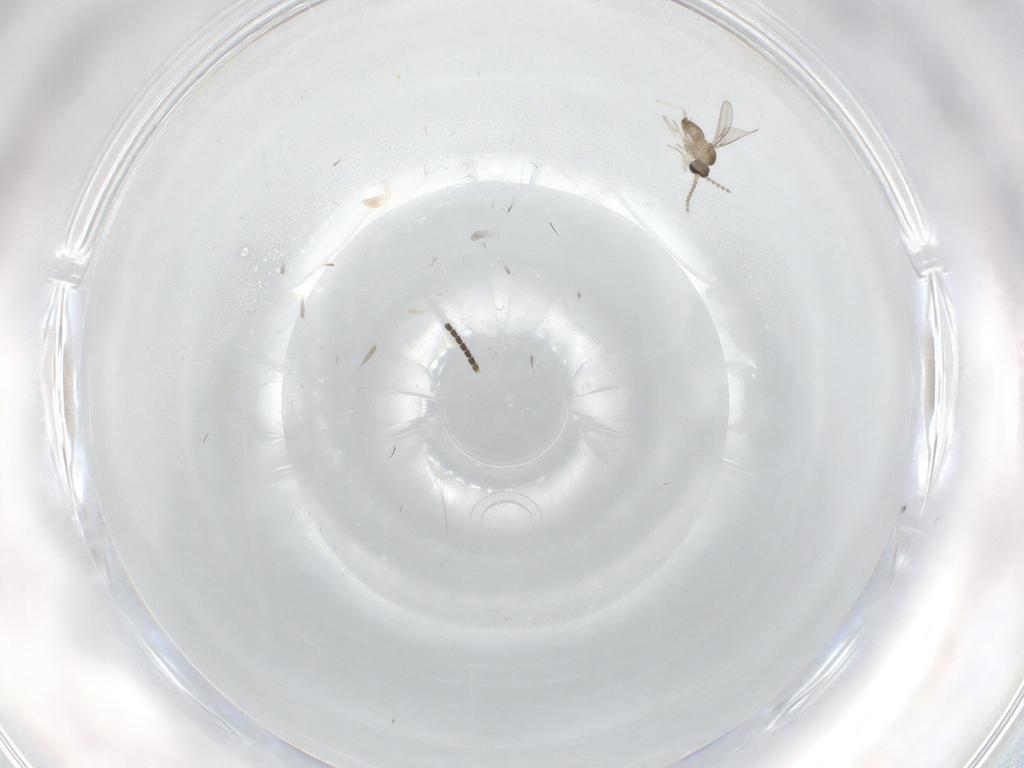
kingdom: Animalia
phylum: Arthropoda
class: Insecta
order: Diptera
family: Cecidomyiidae
